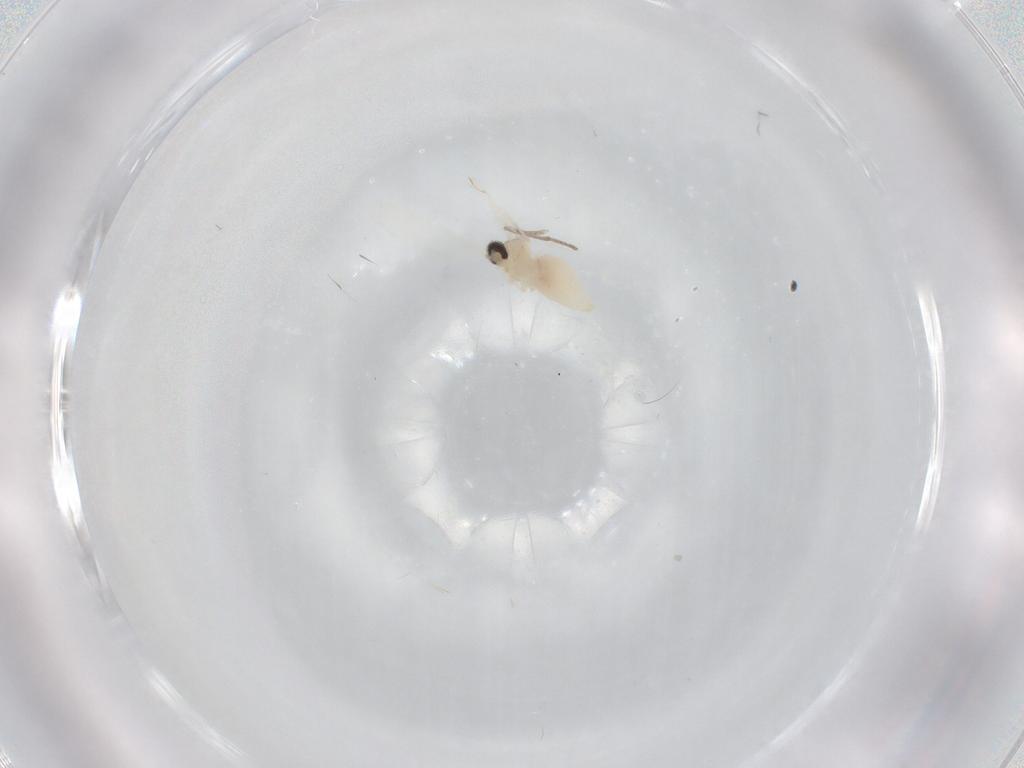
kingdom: Animalia
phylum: Arthropoda
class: Insecta
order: Diptera
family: Cecidomyiidae
